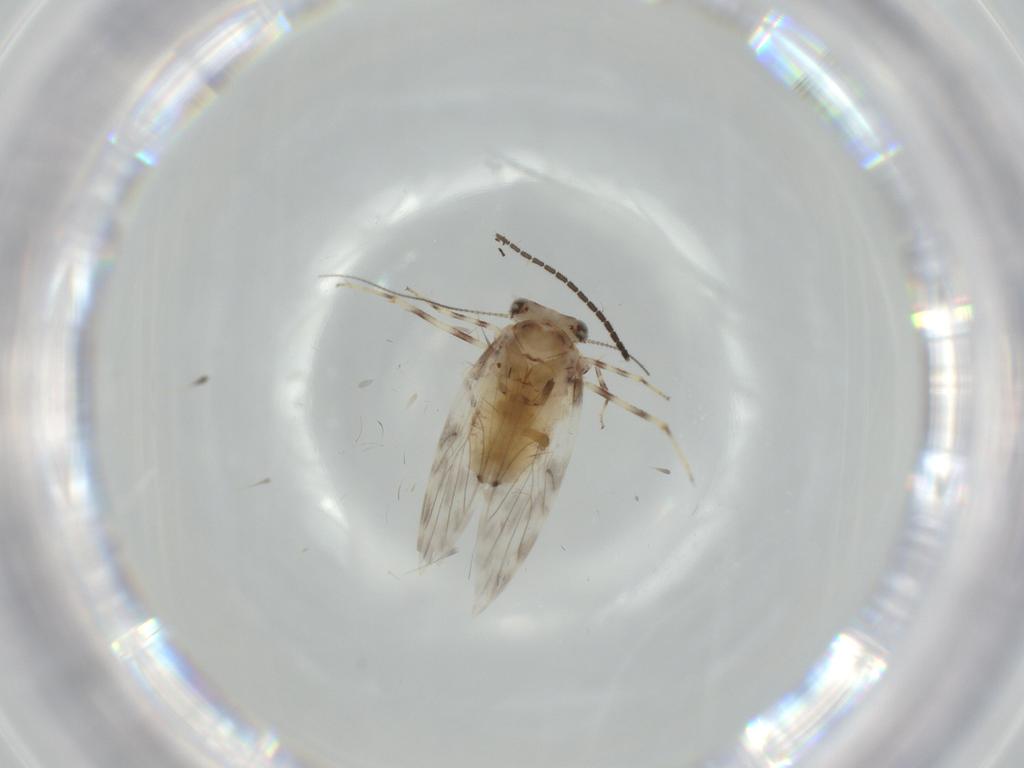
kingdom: Animalia
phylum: Arthropoda
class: Insecta
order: Psocodea
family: Lepidopsocidae
